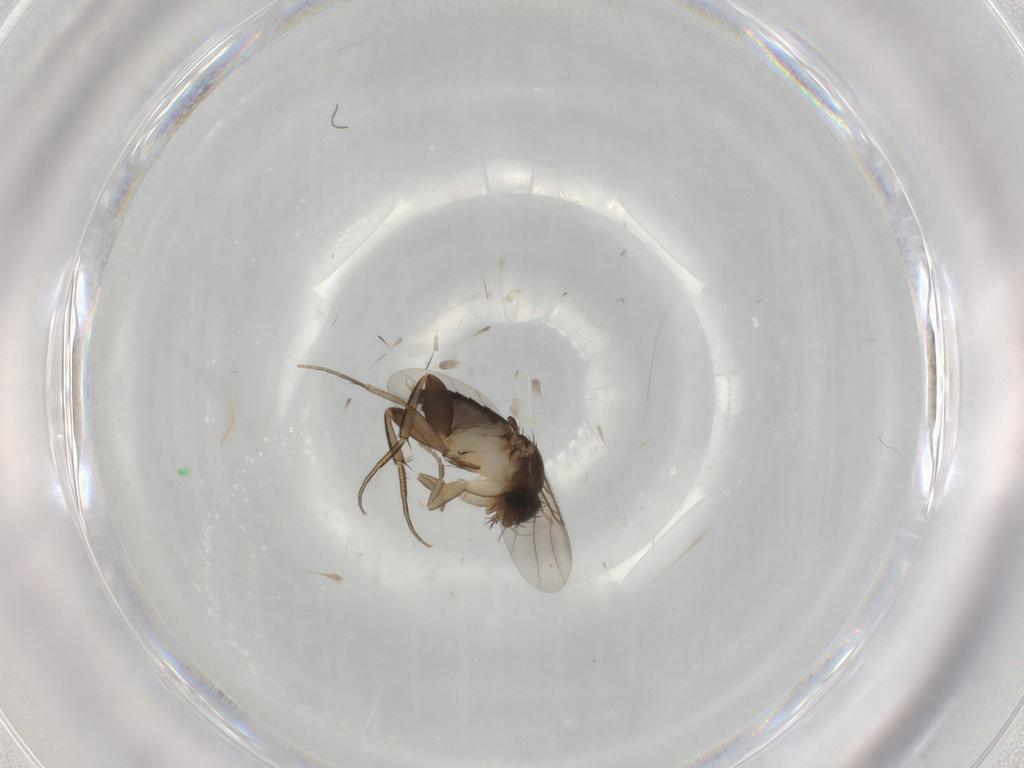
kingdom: Animalia
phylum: Arthropoda
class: Insecta
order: Diptera
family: Phoridae
